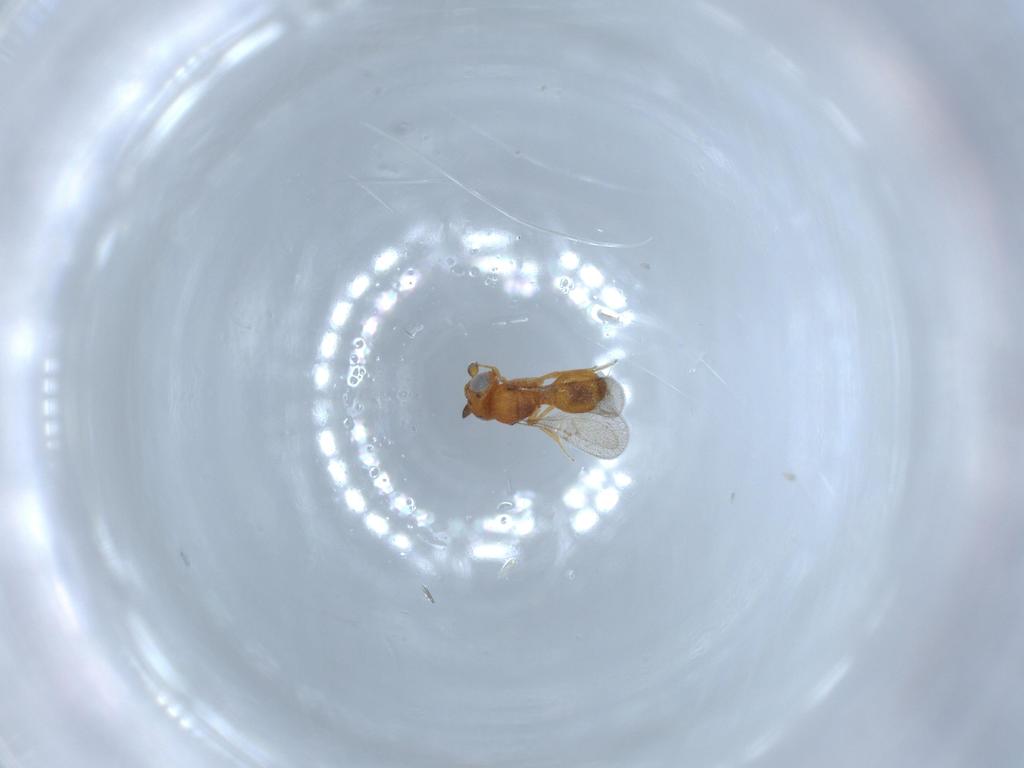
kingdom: Animalia
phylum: Arthropoda
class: Insecta
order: Hymenoptera
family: Scelionidae
